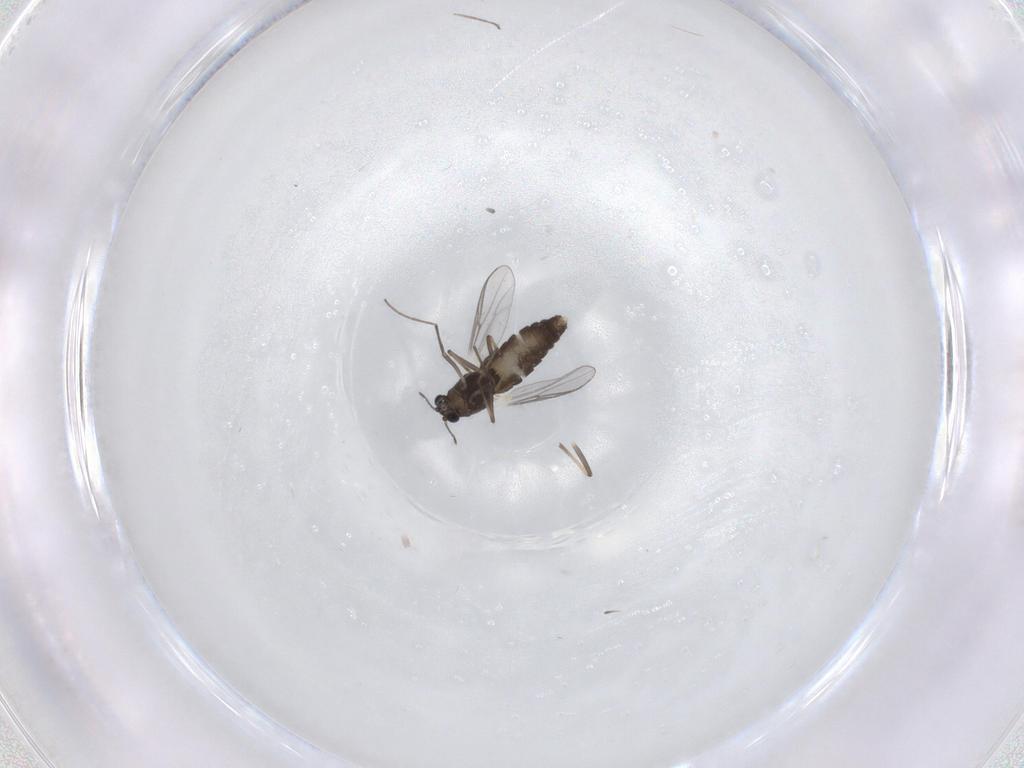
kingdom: Animalia
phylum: Arthropoda
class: Insecta
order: Diptera
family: Chironomidae
